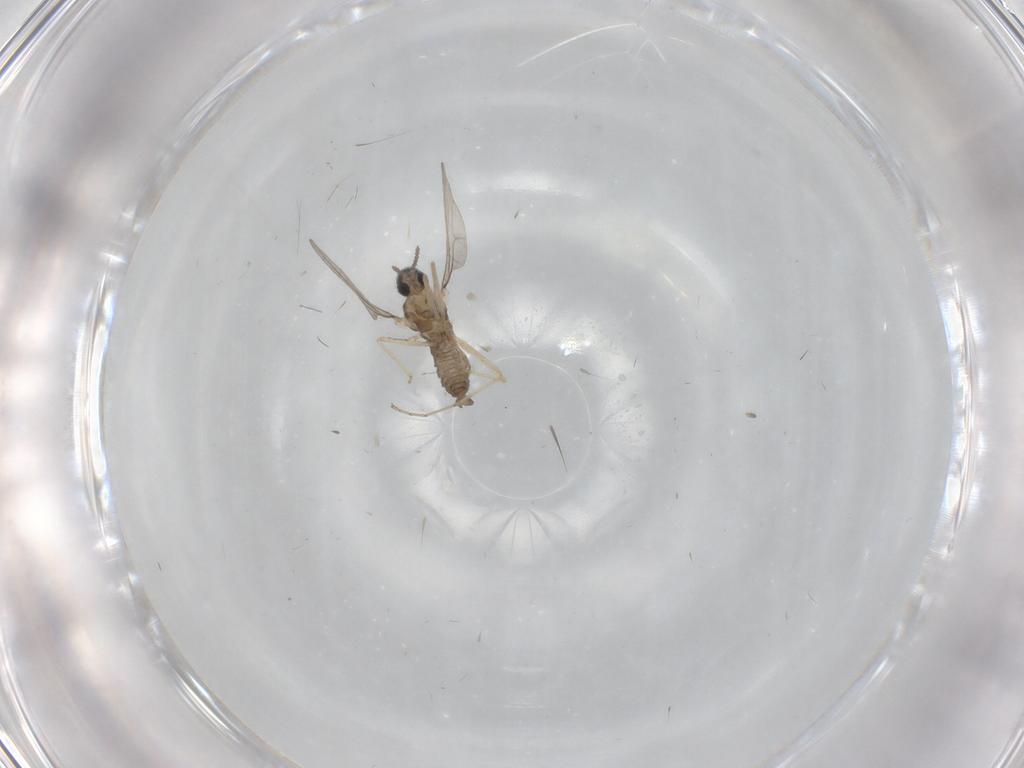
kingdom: Animalia
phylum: Arthropoda
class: Insecta
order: Diptera
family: Cecidomyiidae
